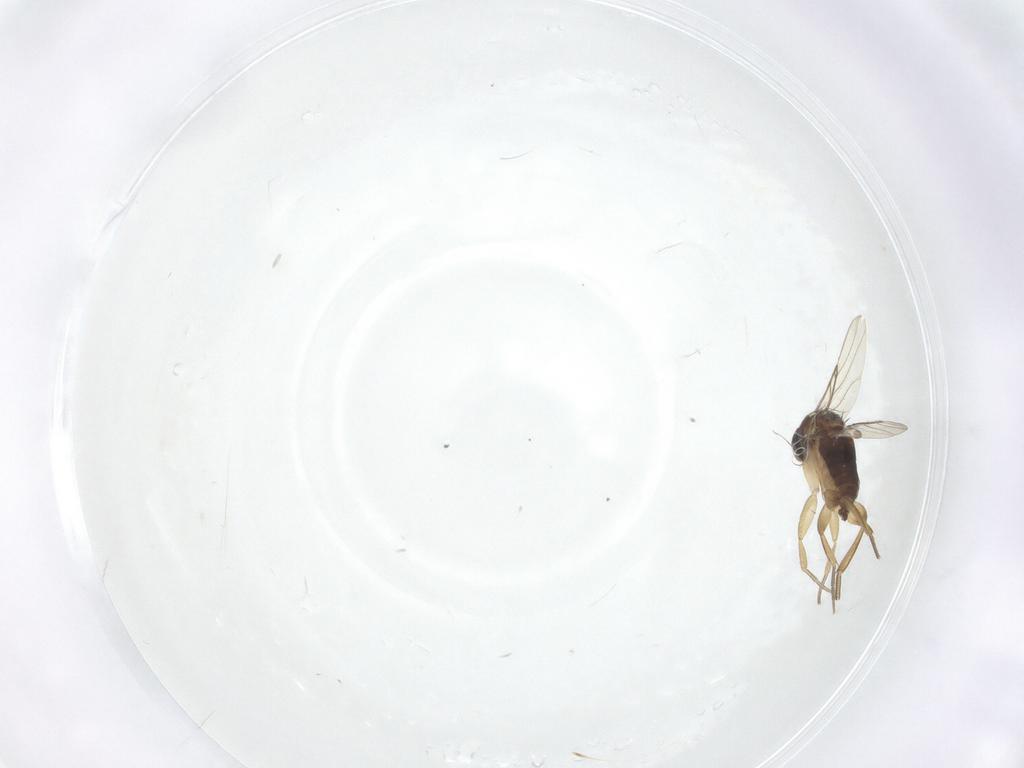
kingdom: Animalia
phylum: Arthropoda
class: Insecta
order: Diptera
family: Phoridae
